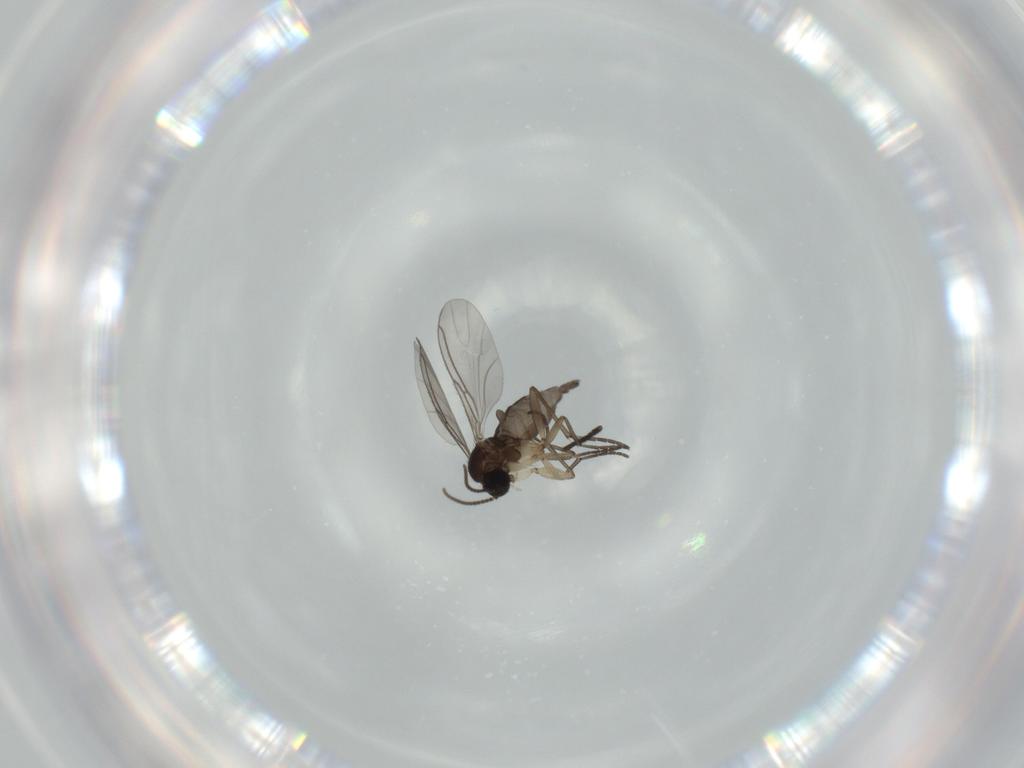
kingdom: Animalia
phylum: Arthropoda
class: Insecta
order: Diptera
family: Sciaridae
